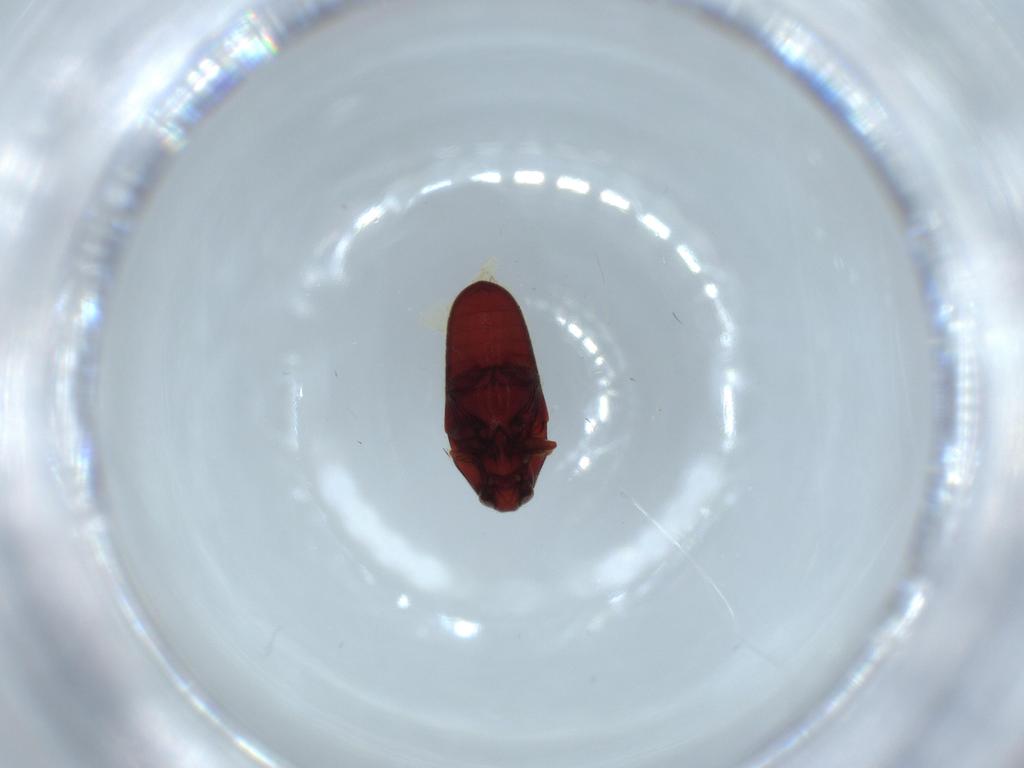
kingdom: Animalia
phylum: Arthropoda
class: Insecta
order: Coleoptera
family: Throscidae
